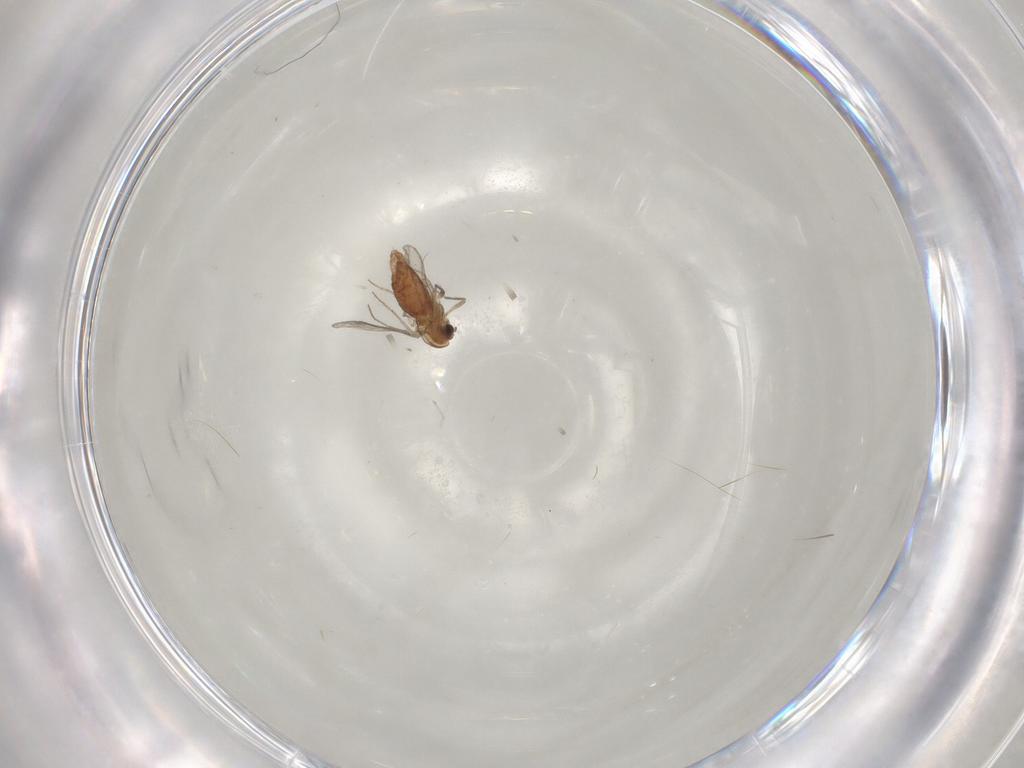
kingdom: Animalia
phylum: Arthropoda
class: Insecta
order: Diptera
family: Chironomidae
